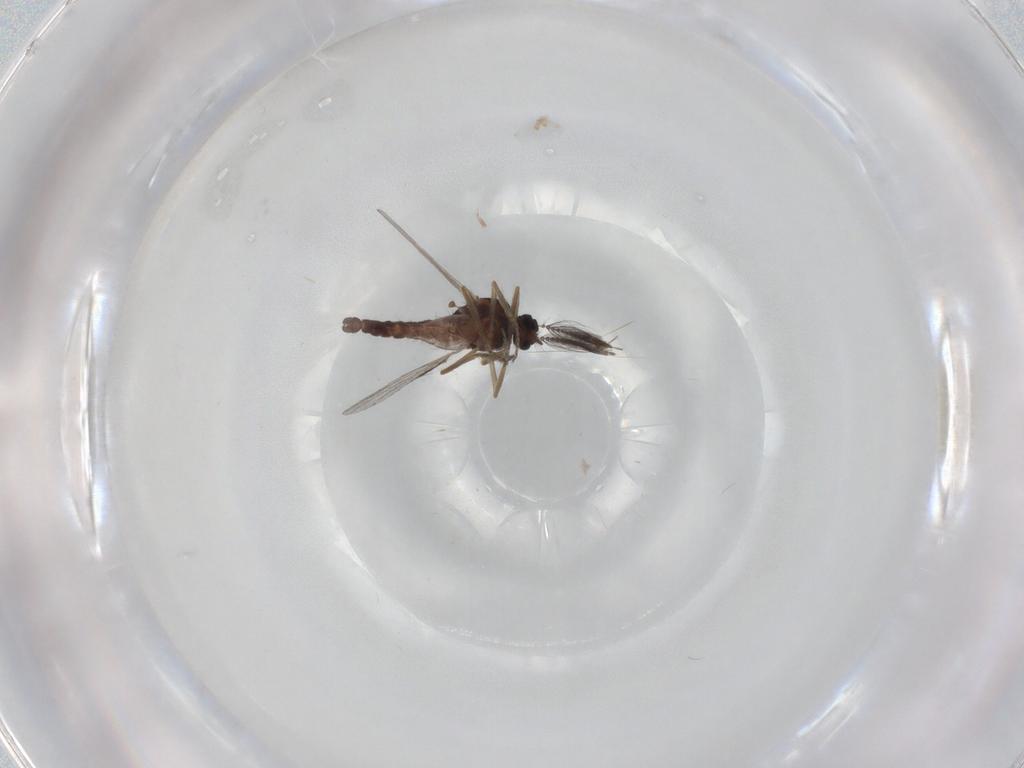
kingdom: Animalia
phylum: Arthropoda
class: Insecta
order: Diptera
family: Ceratopogonidae
